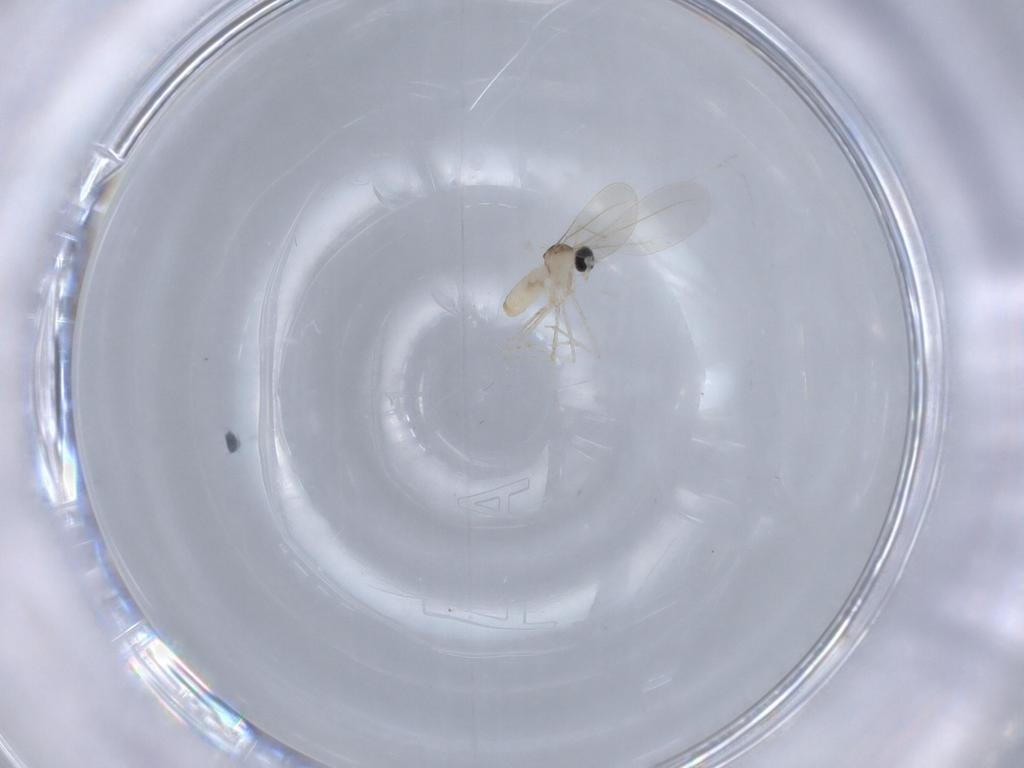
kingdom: Animalia
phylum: Arthropoda
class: Insecta
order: Diptera
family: Cecidomyiidae
